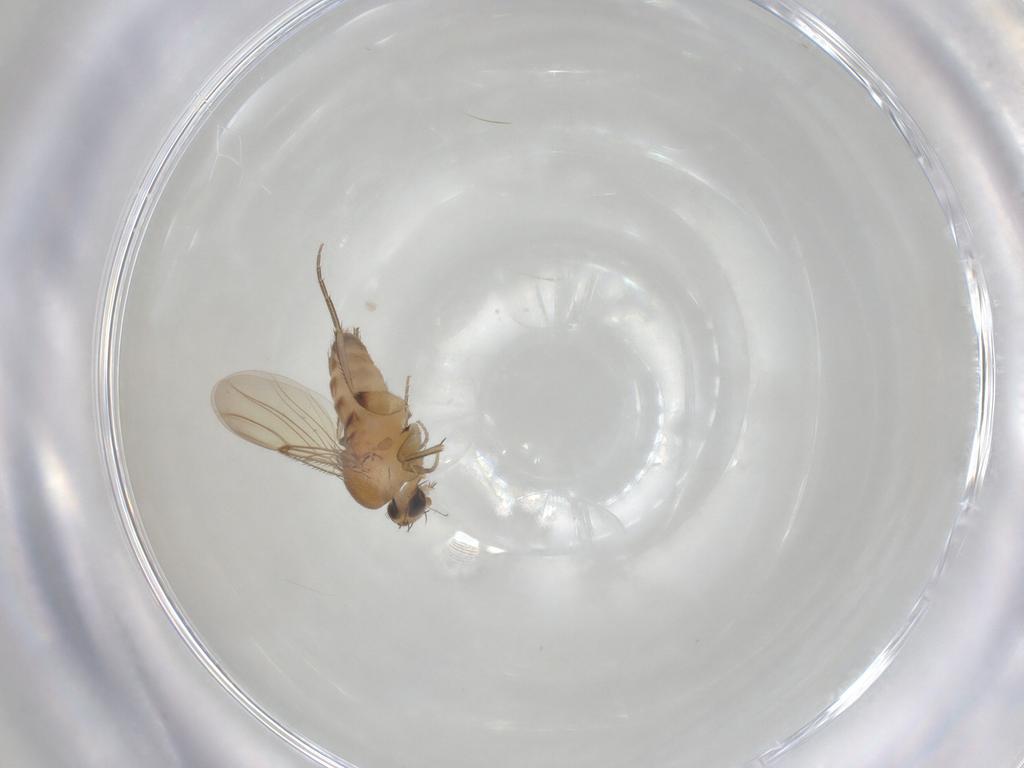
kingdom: Animalia
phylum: Arthropoda
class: Insecta
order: Diptera
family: Phoridae
